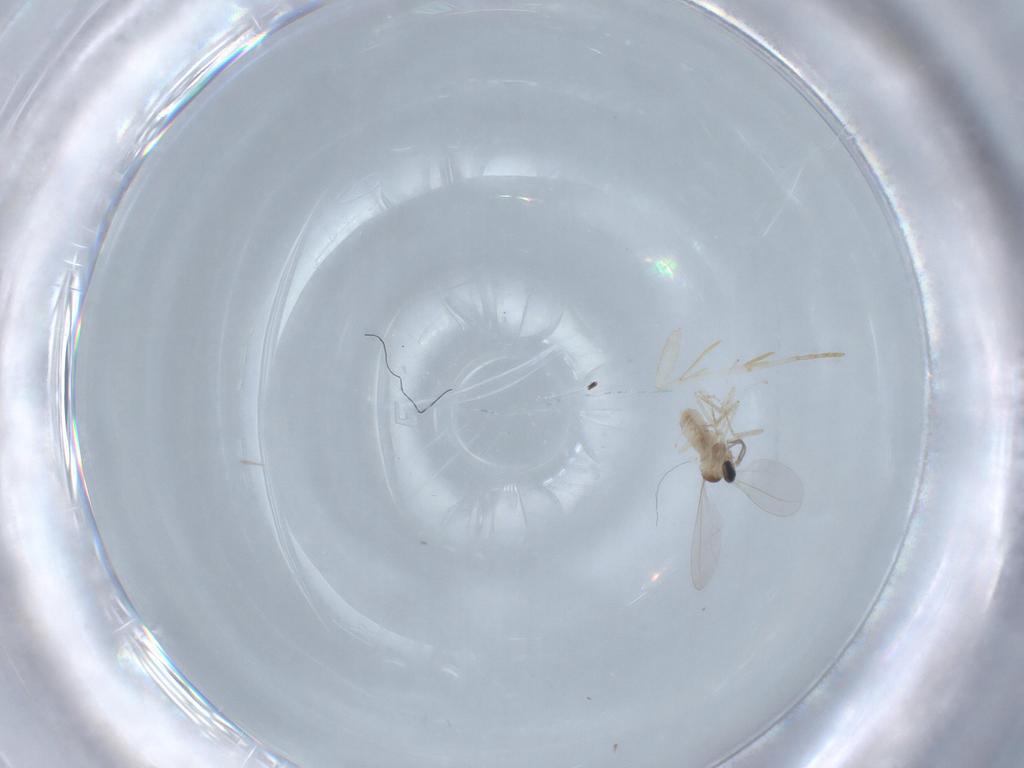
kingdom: Animalia
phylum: Arthropoda
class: Insecta
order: Diptera
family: Cecidomyiidae
